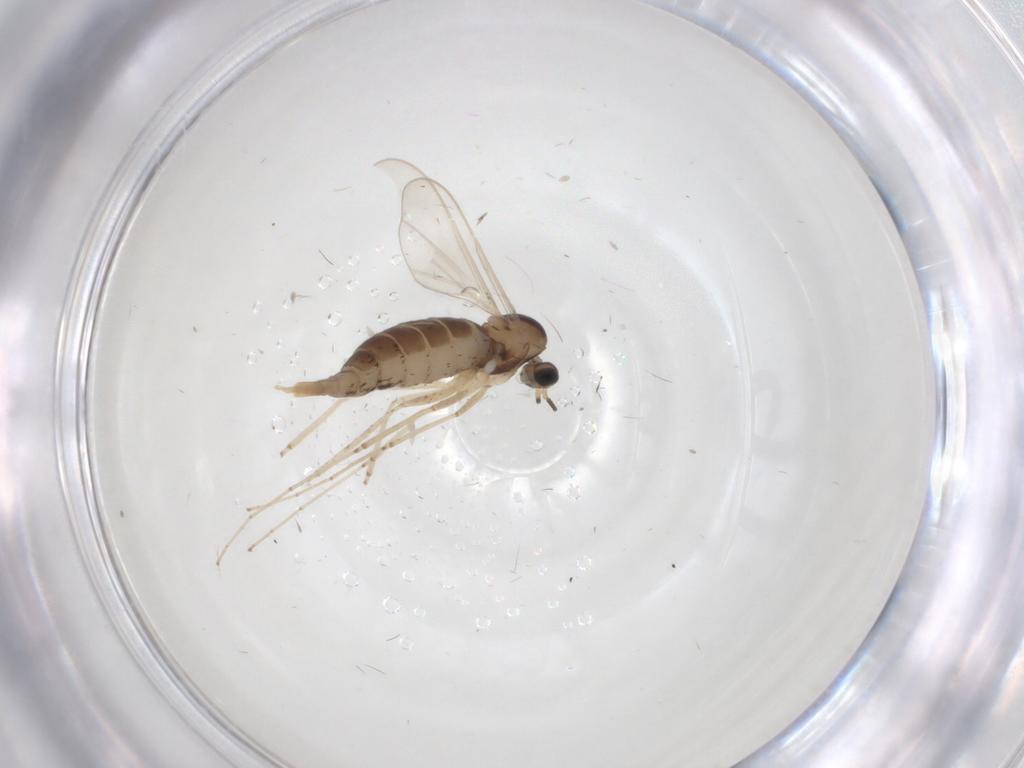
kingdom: Animalia
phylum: Arthropoda
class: Insecta
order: Diptera
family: Cecidomyiidae
